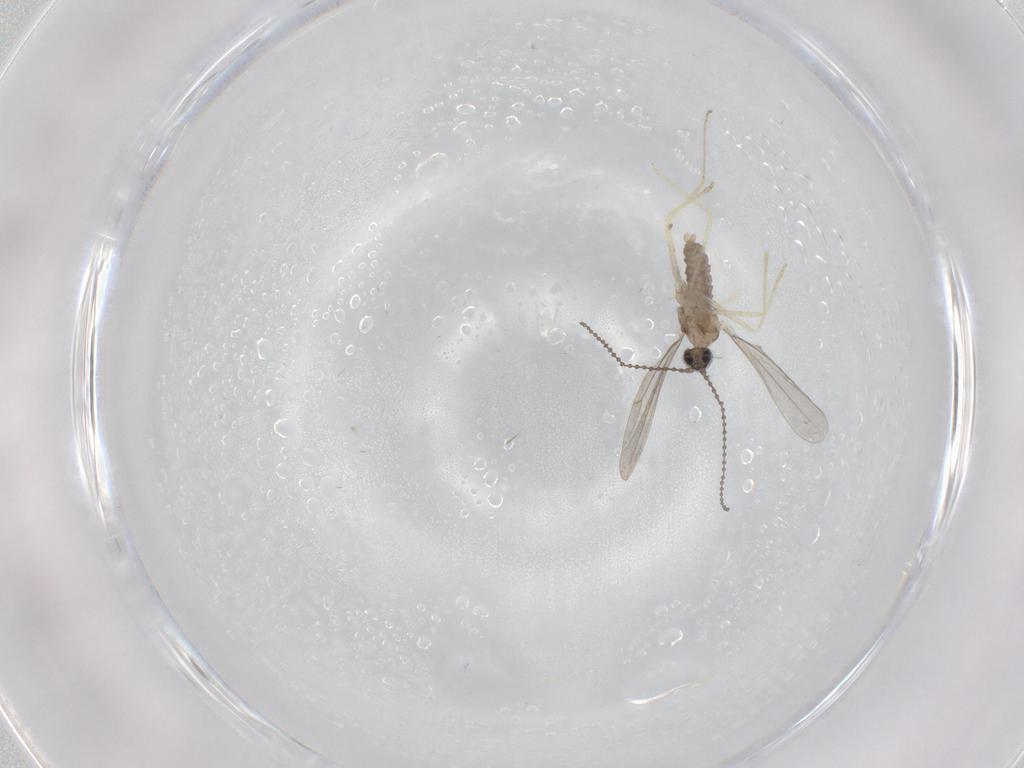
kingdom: Animalia
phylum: Arthropoda
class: Insecta
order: Diptera
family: Cecidomyiidae
